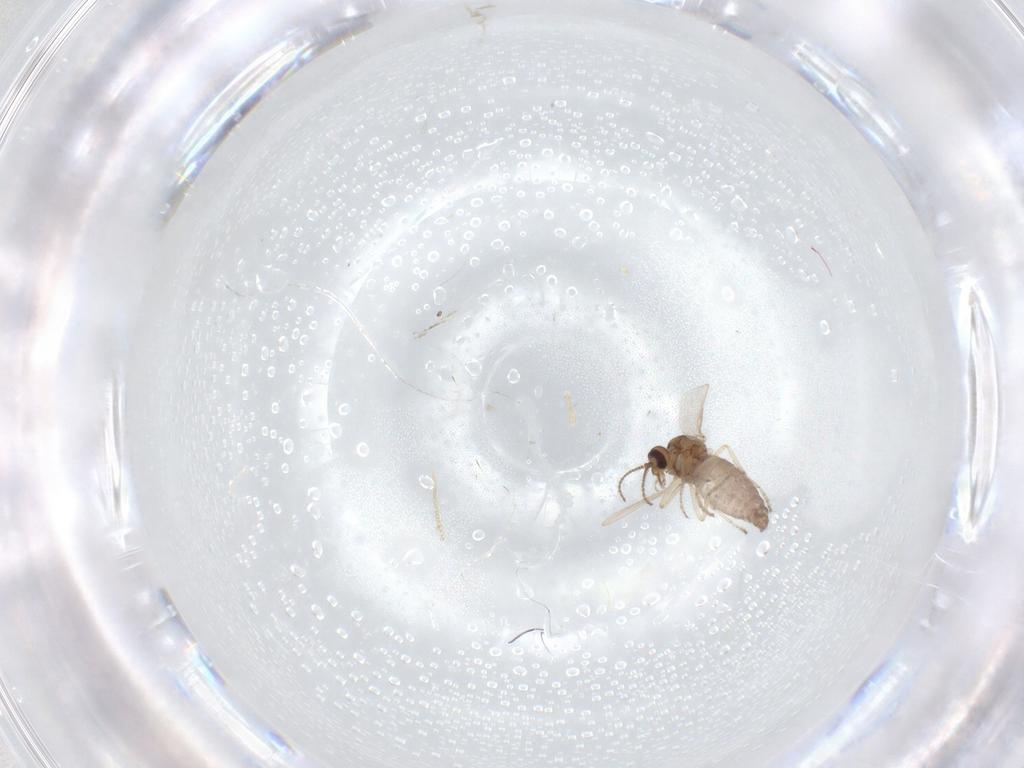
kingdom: Animalia
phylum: Arthropoda
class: Insecta
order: Diptera
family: Ceratopogonidae
